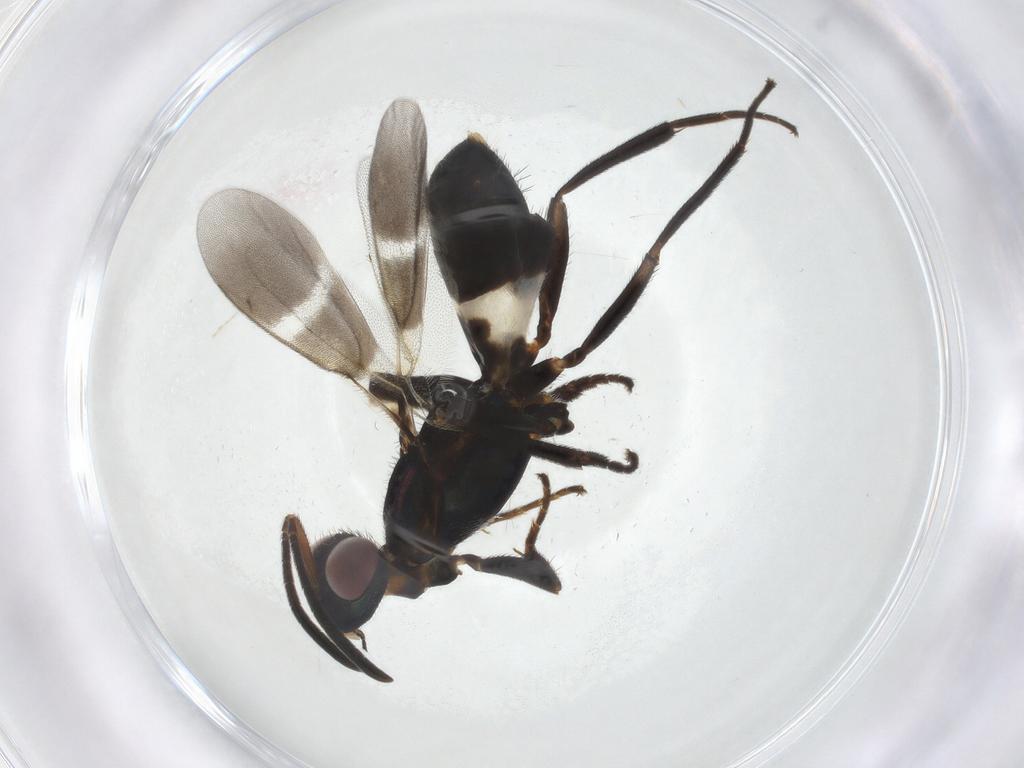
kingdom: Animalia
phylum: Arthropoda
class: Insecta
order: Hymenoptera
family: Eupelmidae
